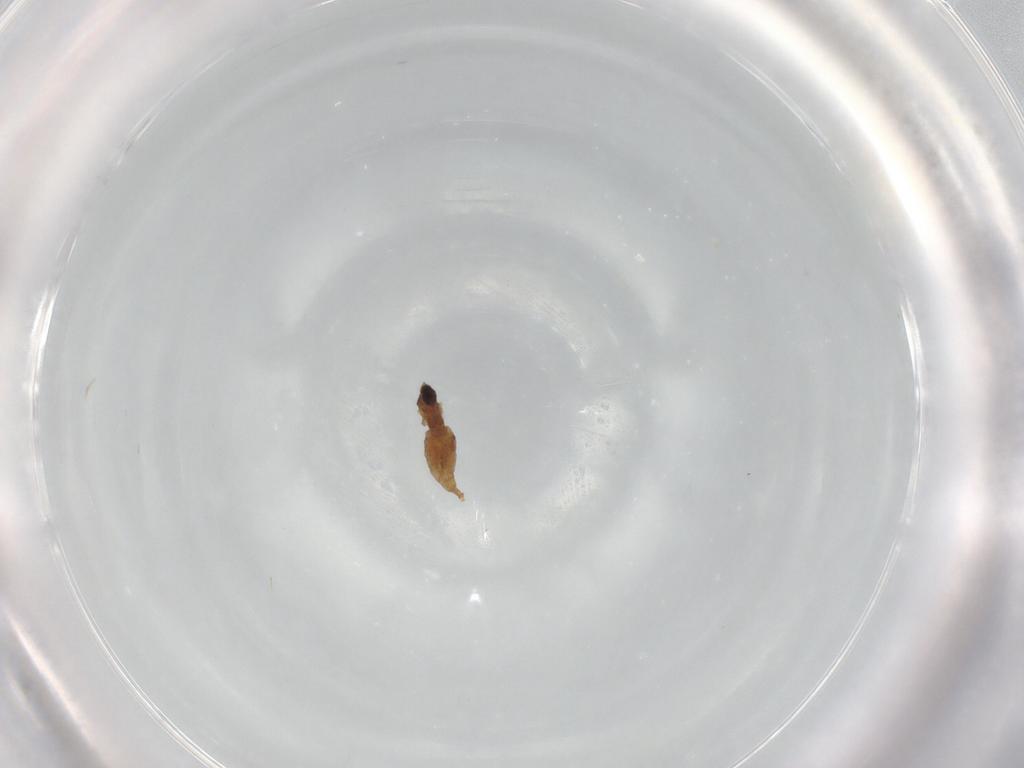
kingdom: Animalia
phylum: Arthropoda
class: Insecta
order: Diptera
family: Cecidomyiidae
